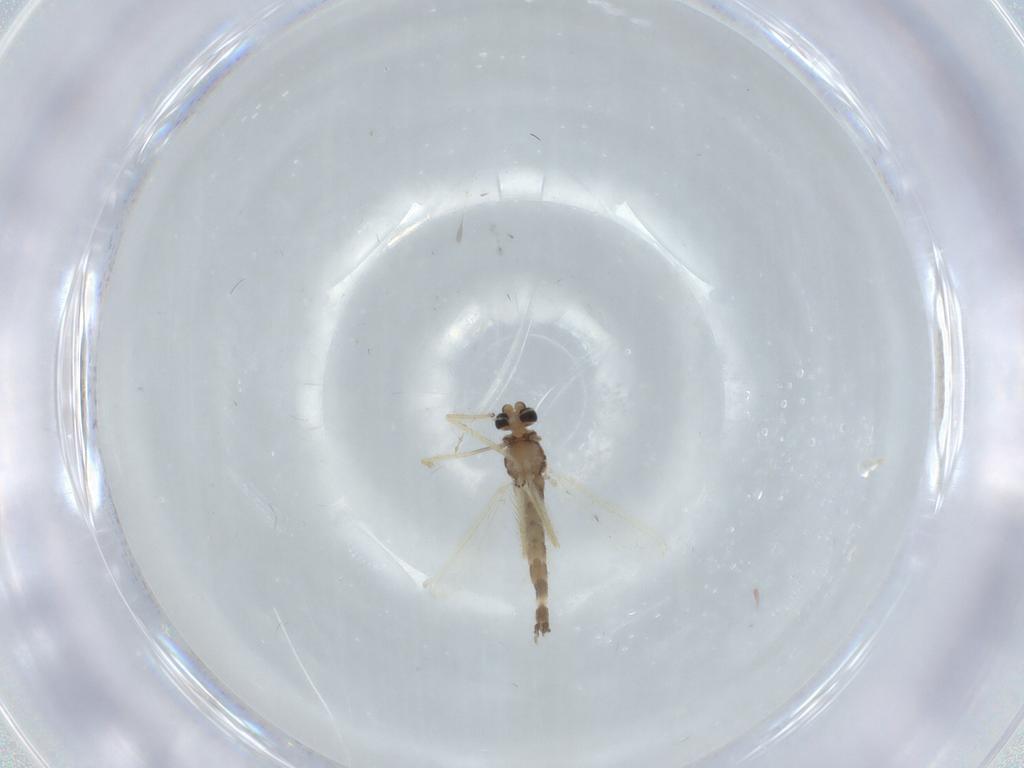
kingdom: Animalia
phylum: Arthropoda
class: Insecta
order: Diptera
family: Chironomidae
